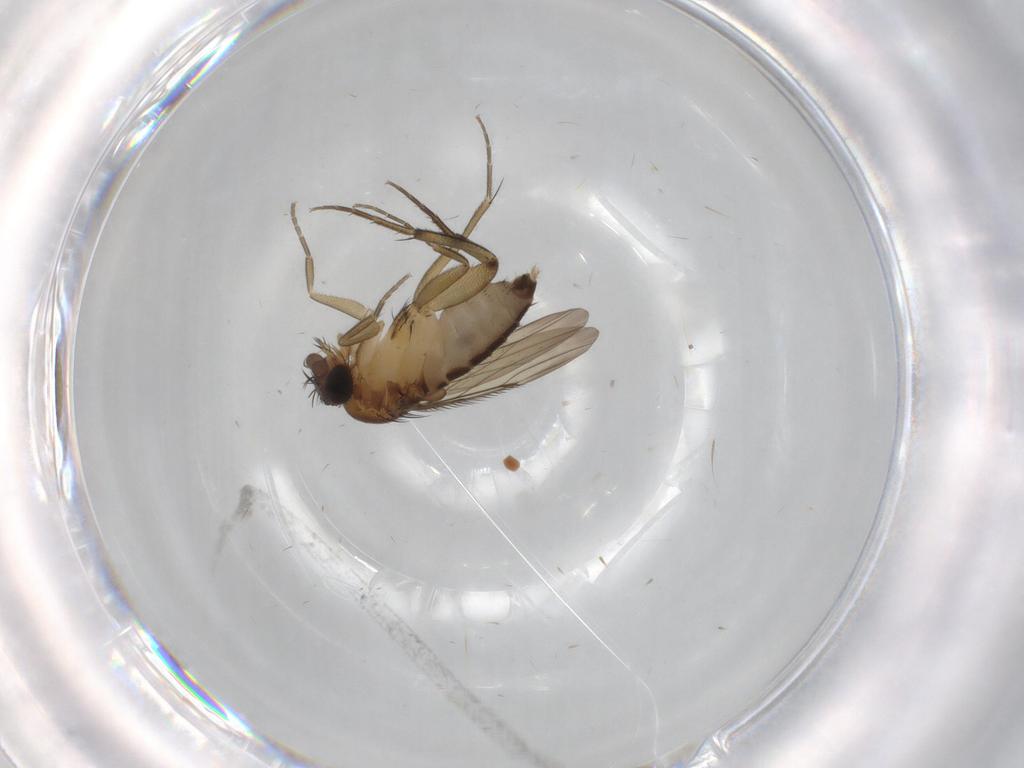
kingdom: Animalia
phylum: Arthropoda
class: Insecta
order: Diptera
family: Phoridae
